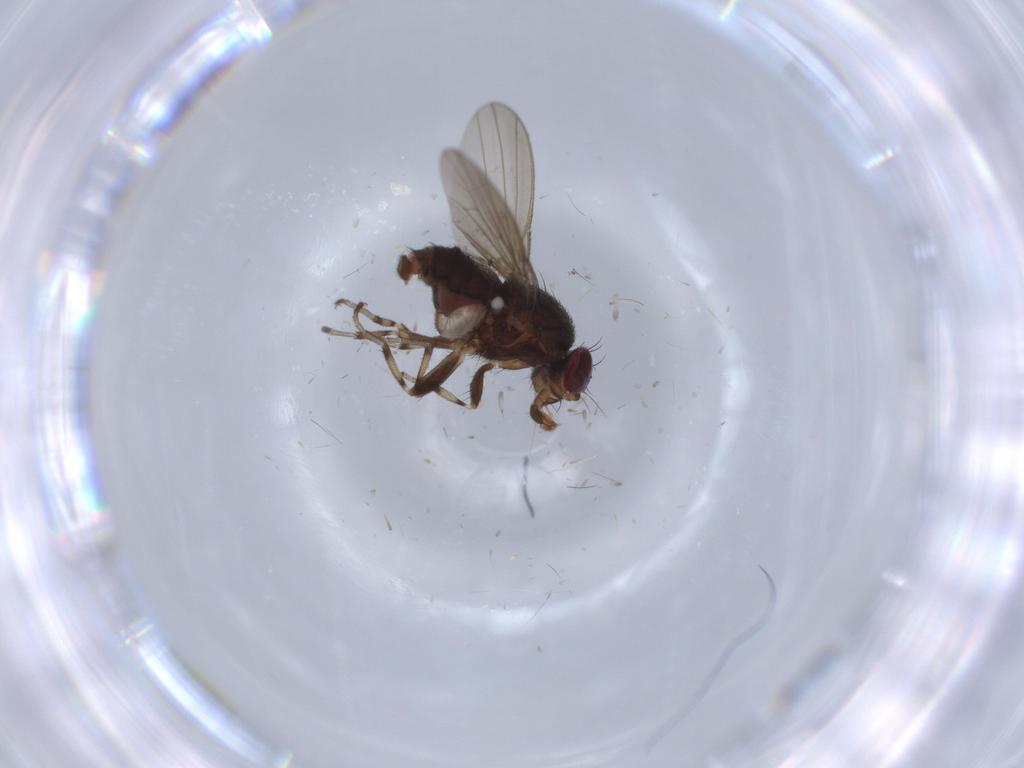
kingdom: Animalia
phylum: Arthropoda
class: Insecta
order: Diptera
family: Heleomyzidae
